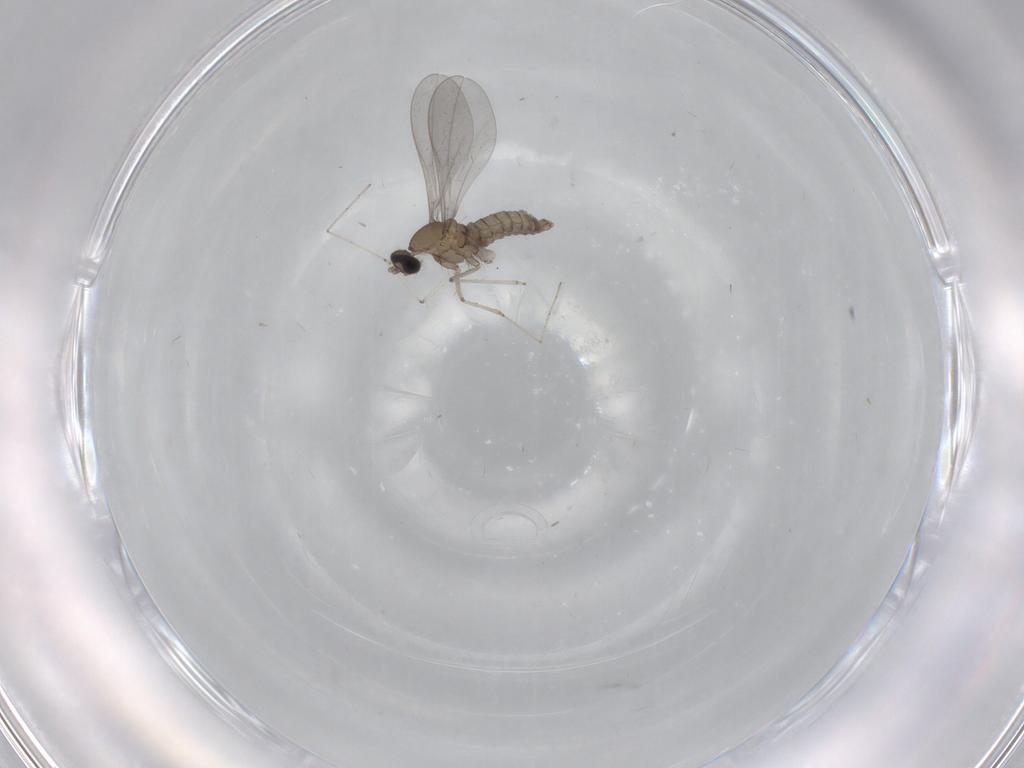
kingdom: Animalia
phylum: Arthropoda
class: Insecta
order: Diptera
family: Cecidomyiidae
